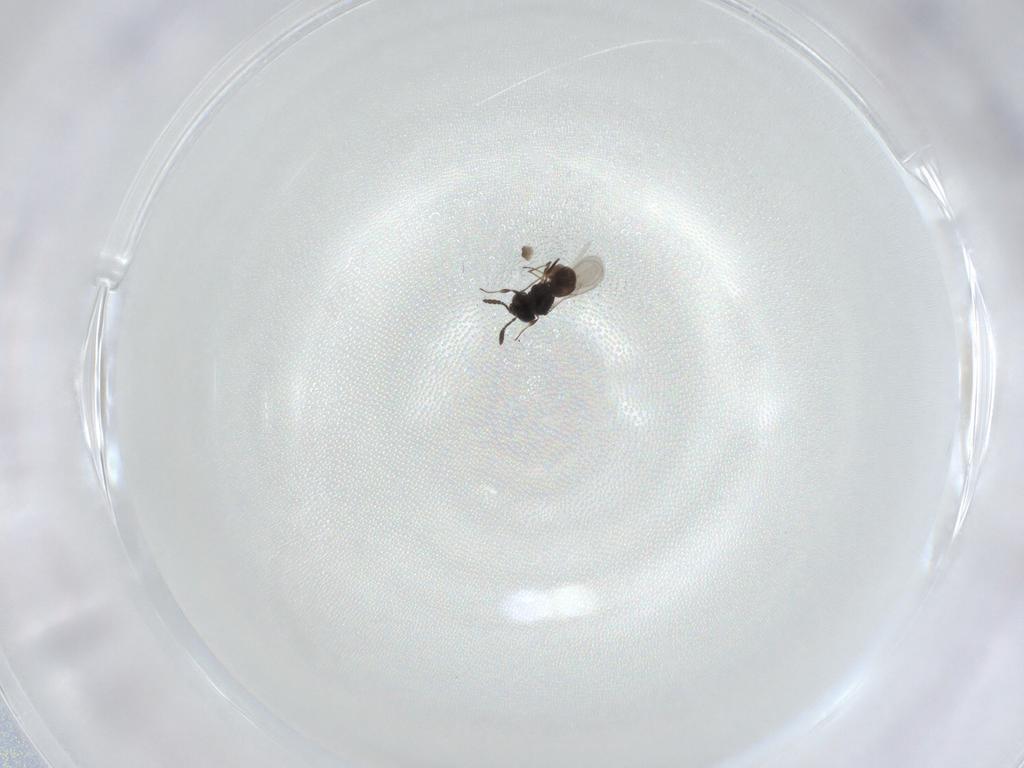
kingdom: Animalia
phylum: Arthropoda
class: Insecta
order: Hymenoptera
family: Scelionidae
